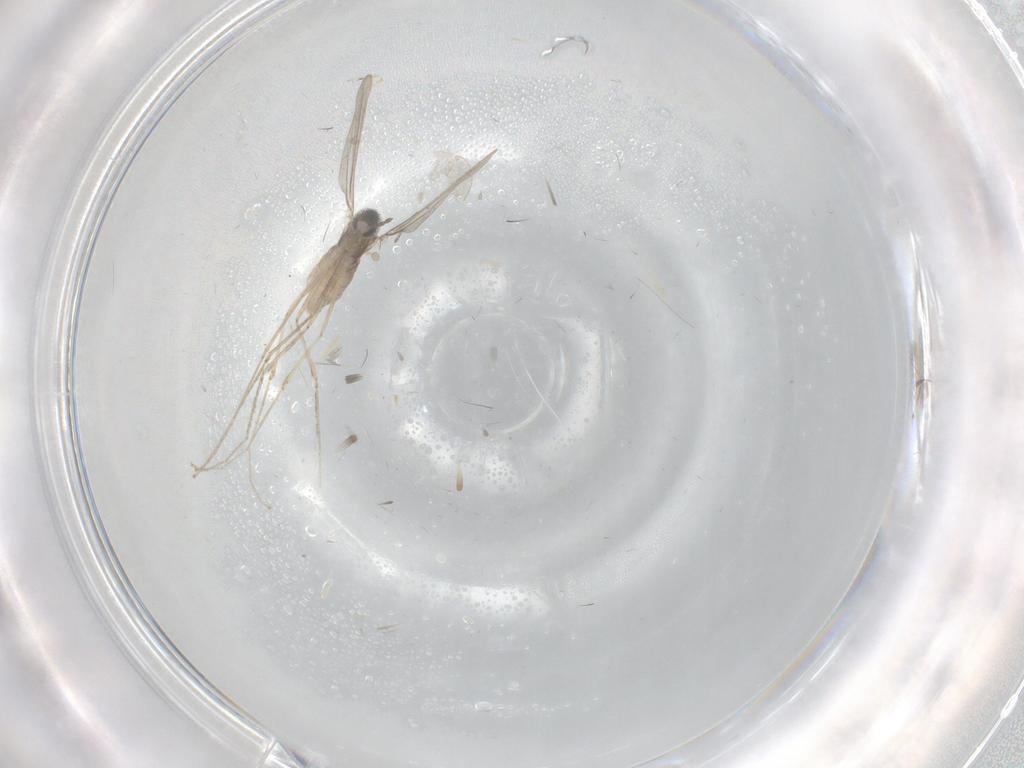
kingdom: Animalia
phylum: Arthropoda
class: Insecta
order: Diptera
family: Cecidomyiidae
